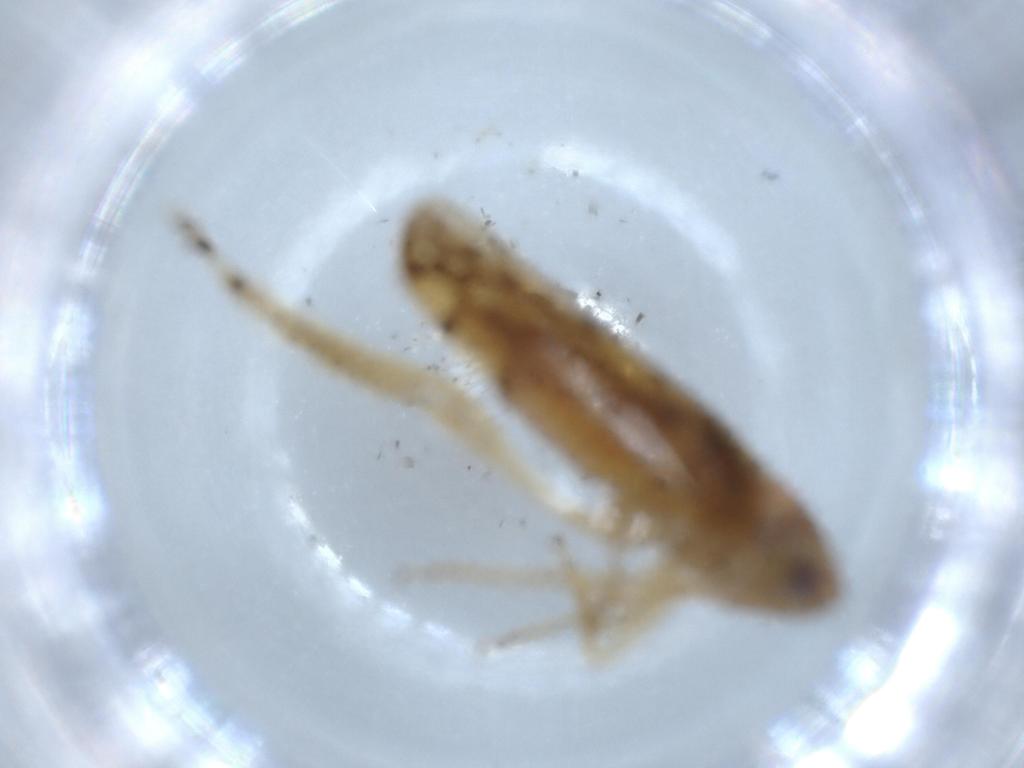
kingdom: Animalia
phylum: Arthropoda
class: Insecta
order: Hemiptera
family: Cicadellidae
